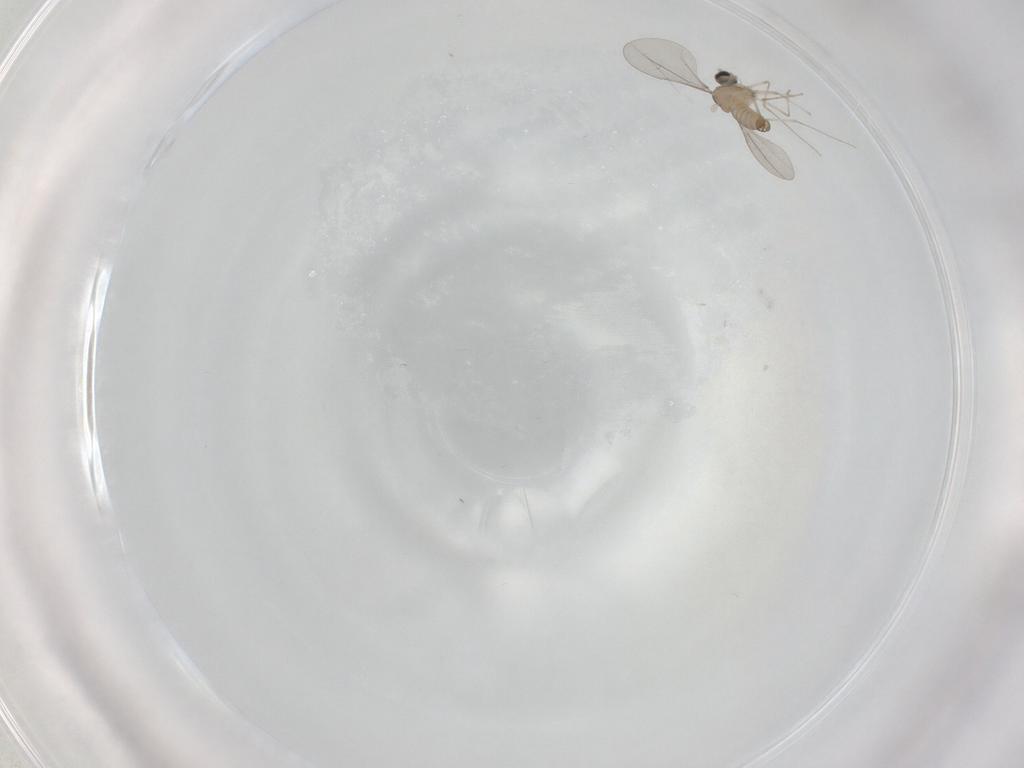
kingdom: Animalia
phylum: Arthropoda
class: Insecta
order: Diptera
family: Cecidomyiidae
